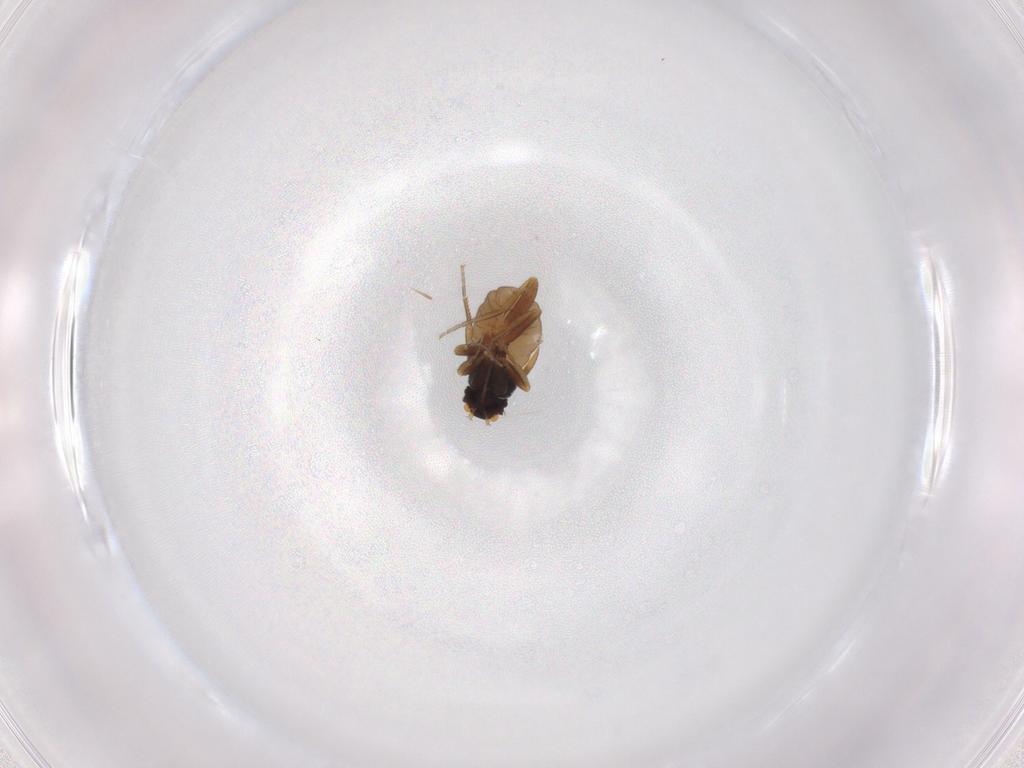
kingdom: Animalia
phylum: Arthropoda
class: Insecta
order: Diptera
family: Phoridae
